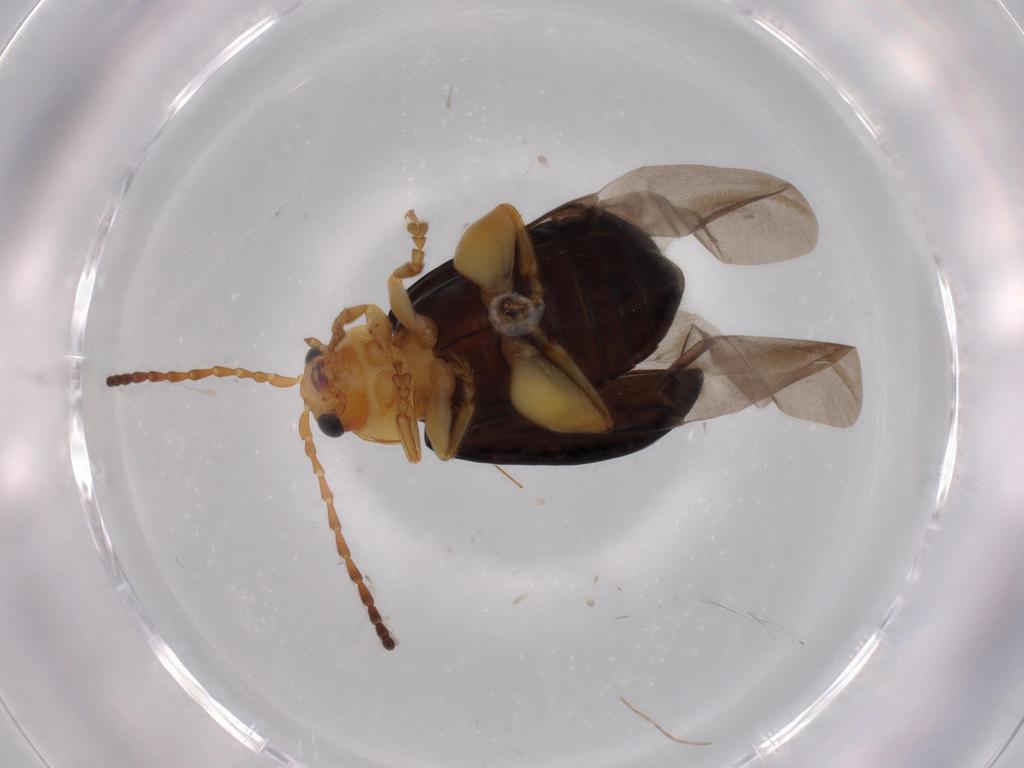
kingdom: Animalia
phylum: Arthropoda
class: Insecta
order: Coleoptera
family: Chrysomelidae
